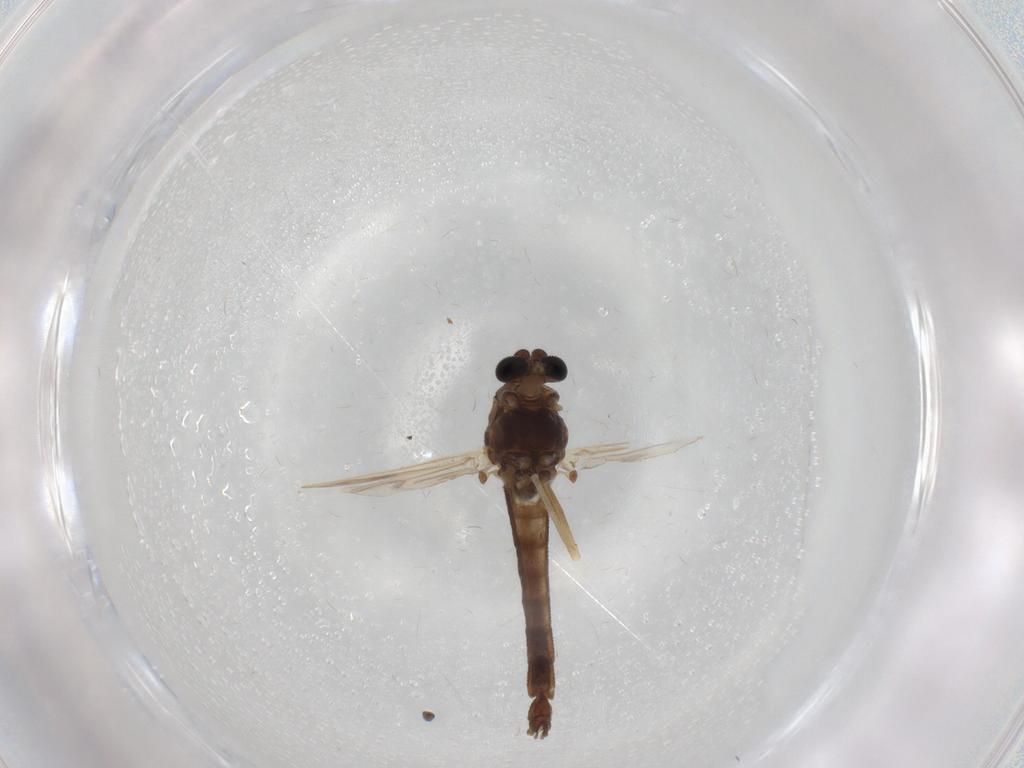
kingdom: Animalia
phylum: Arthropoda
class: Insecta
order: Diptera
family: Chironomidae
